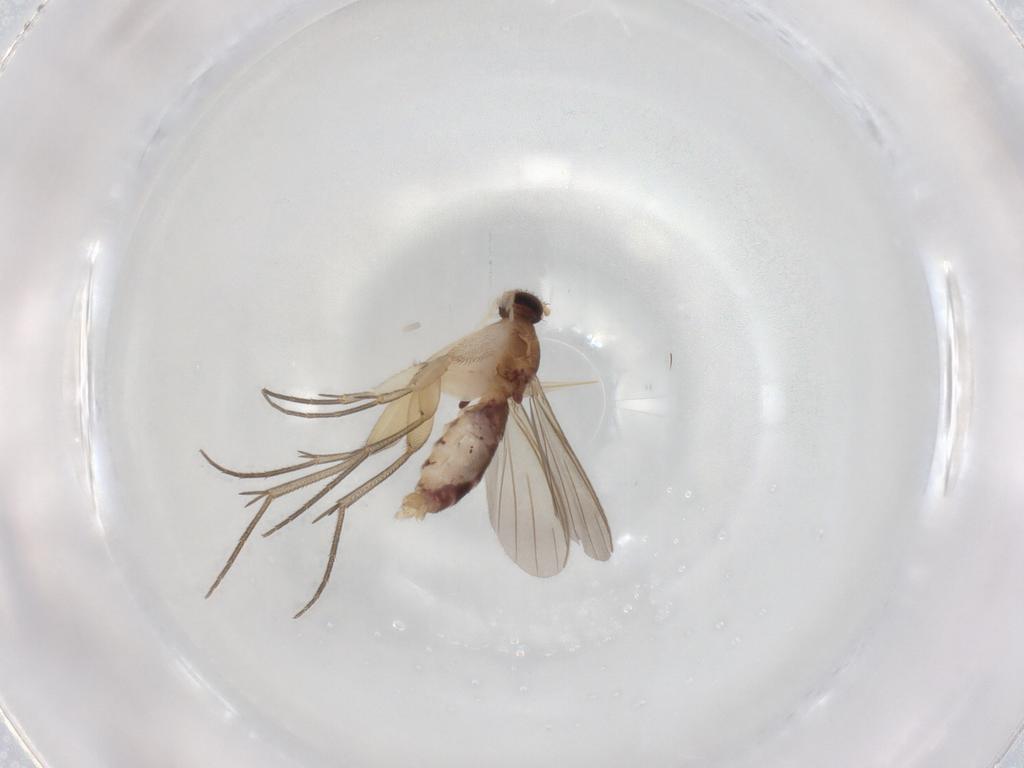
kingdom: Animalia
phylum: Arthropoda
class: Insecta
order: Diptera
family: Mycetophilidae
